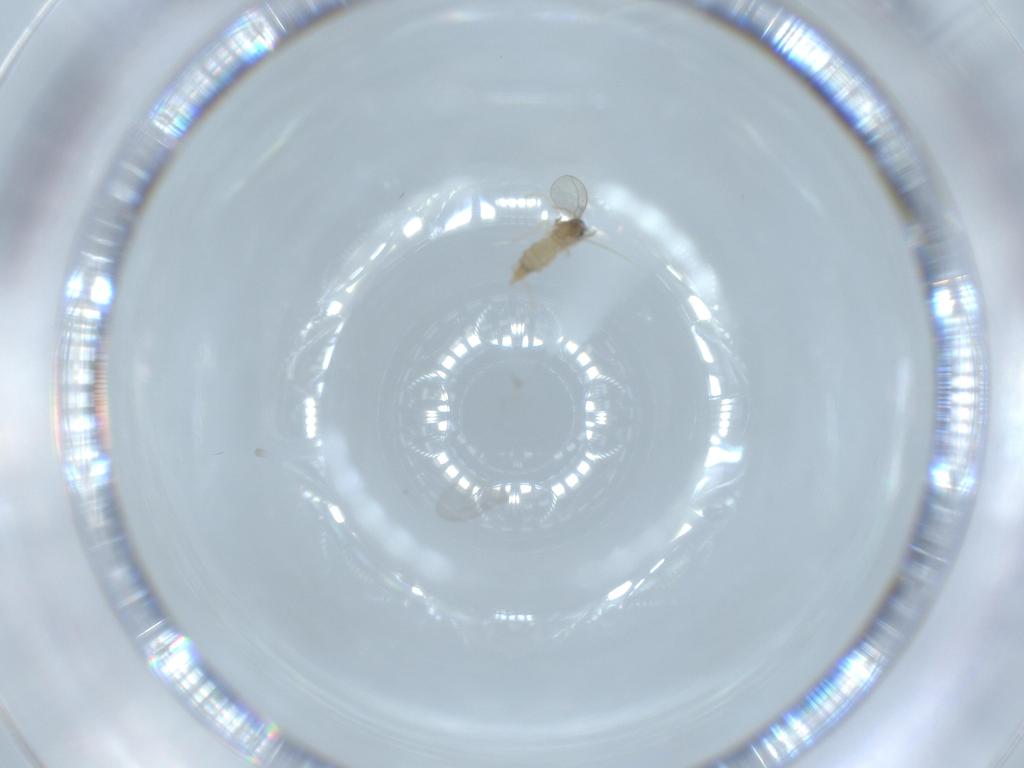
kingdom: Animalia
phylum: Arthropoda
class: Insecta
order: Diptera
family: Cecidomyiidae
